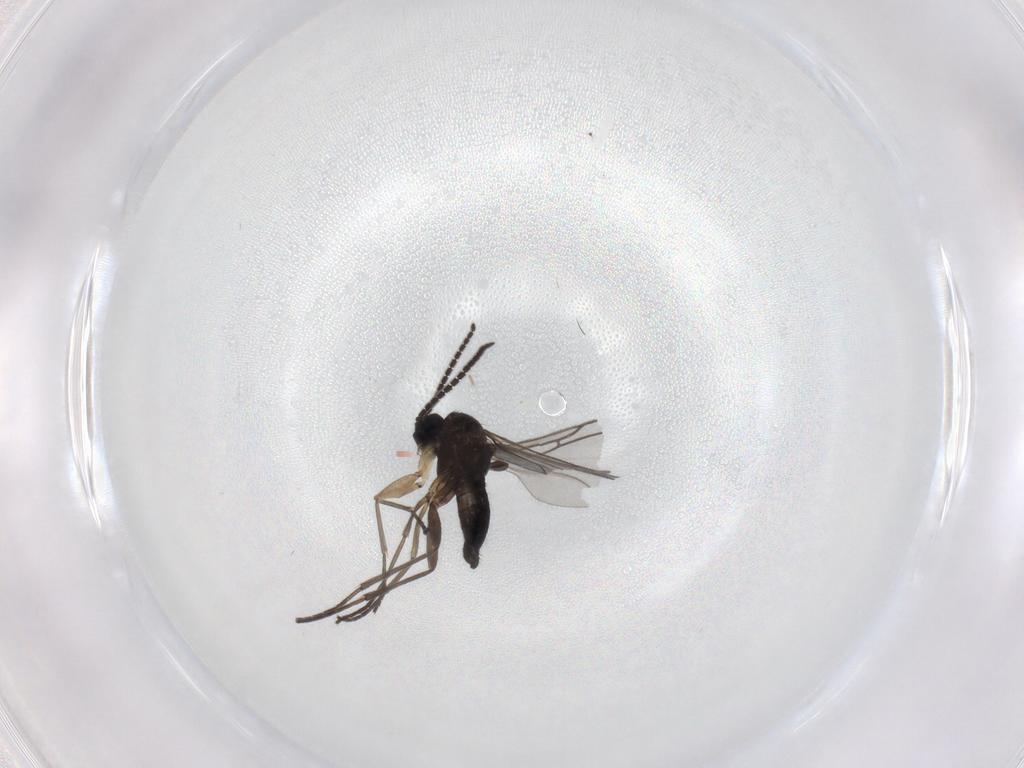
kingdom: Animalia
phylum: Arthropoda
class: Insecta
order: Diptera
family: Sciaridae
